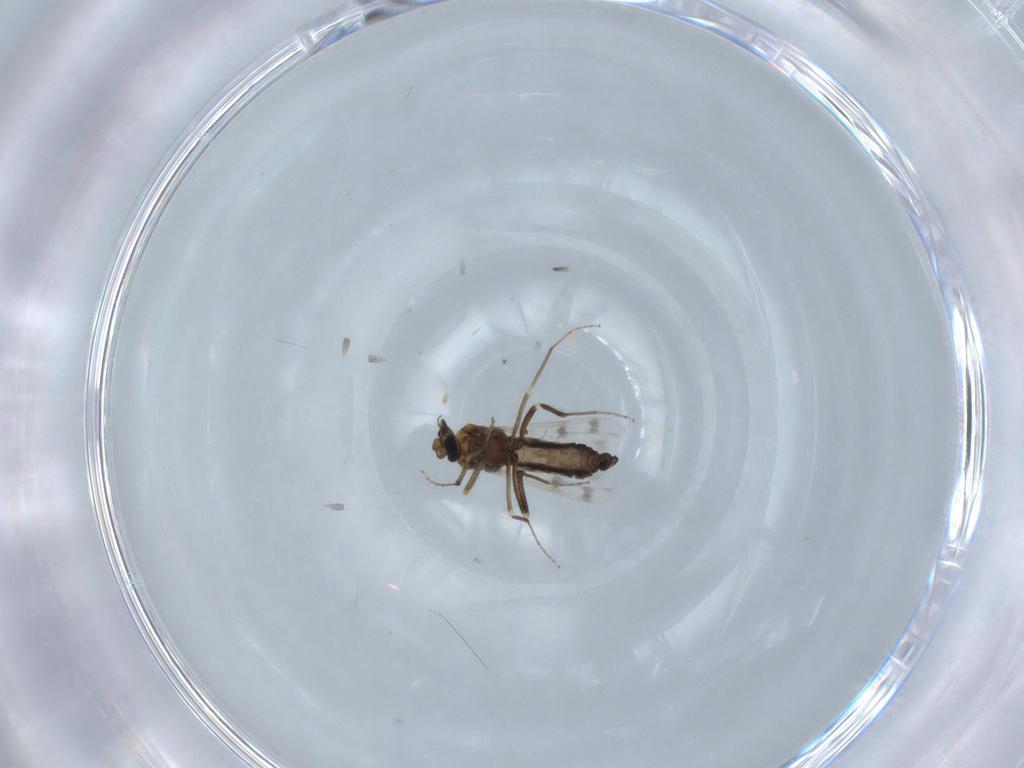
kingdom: Animalia
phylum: Arthropoda
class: Insecta
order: Diptera
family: Ceratopogonidae
